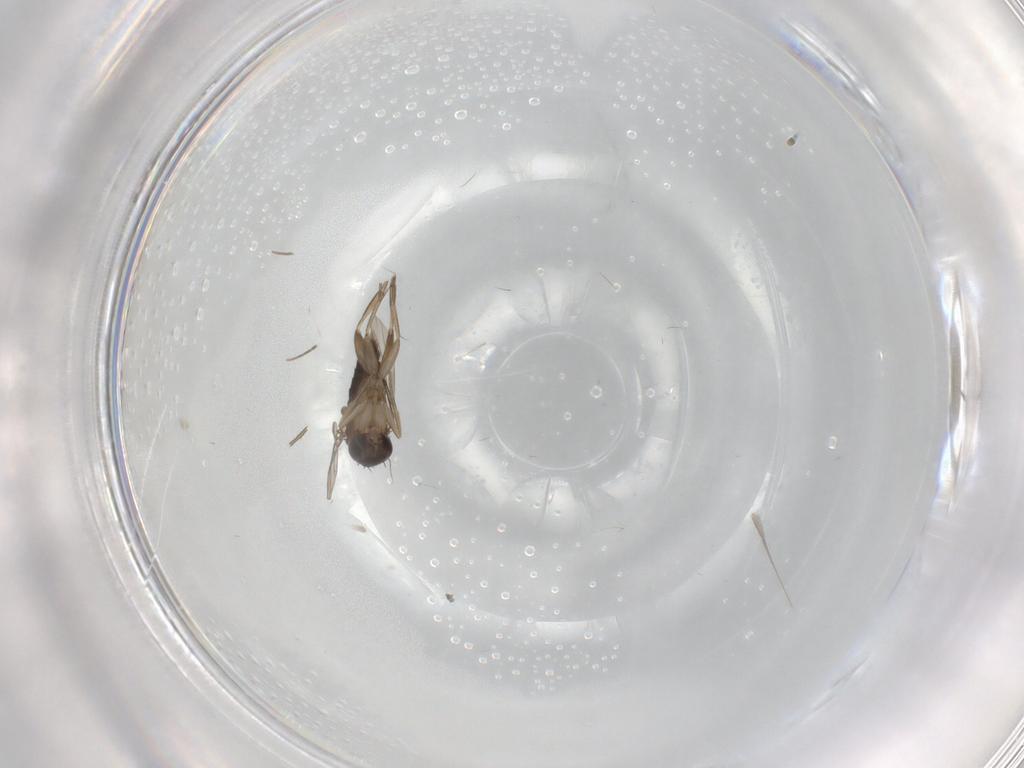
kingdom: Animalia
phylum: Arthropoda
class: Insecta
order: Diptera
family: Phoridae
